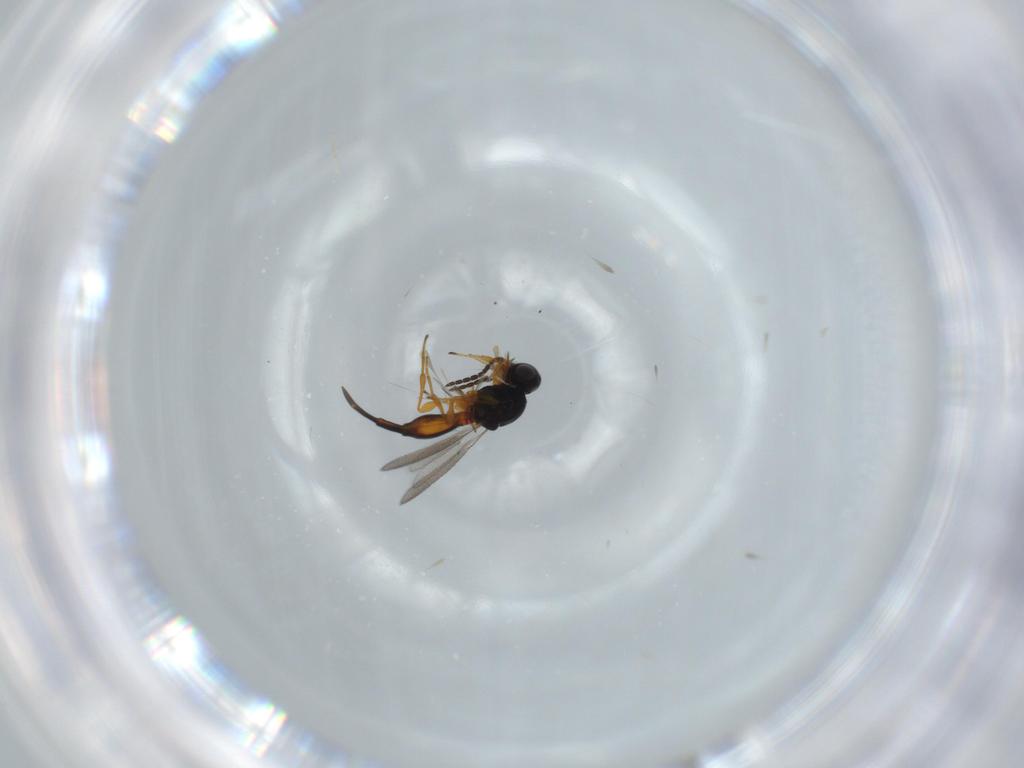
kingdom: Animalia
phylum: Arthropoda
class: Insecta
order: Hymenoptera
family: Platygastridae
